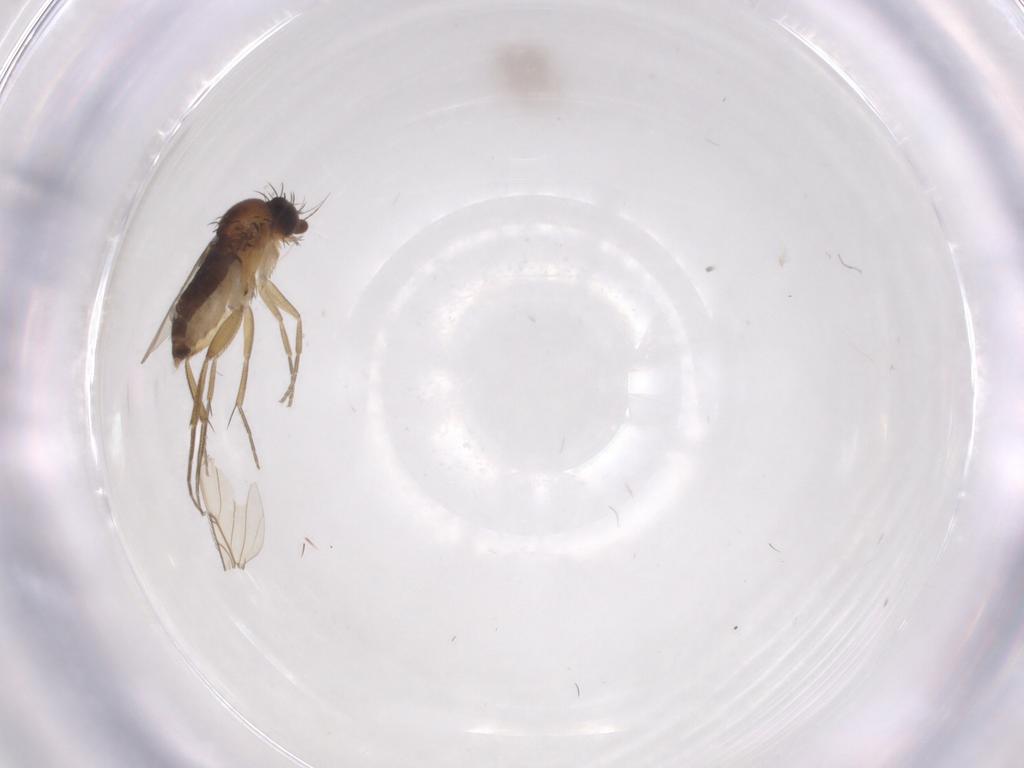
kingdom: Animalia
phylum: Arthropoda
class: Insecta
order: Diptera
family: Phoridae
